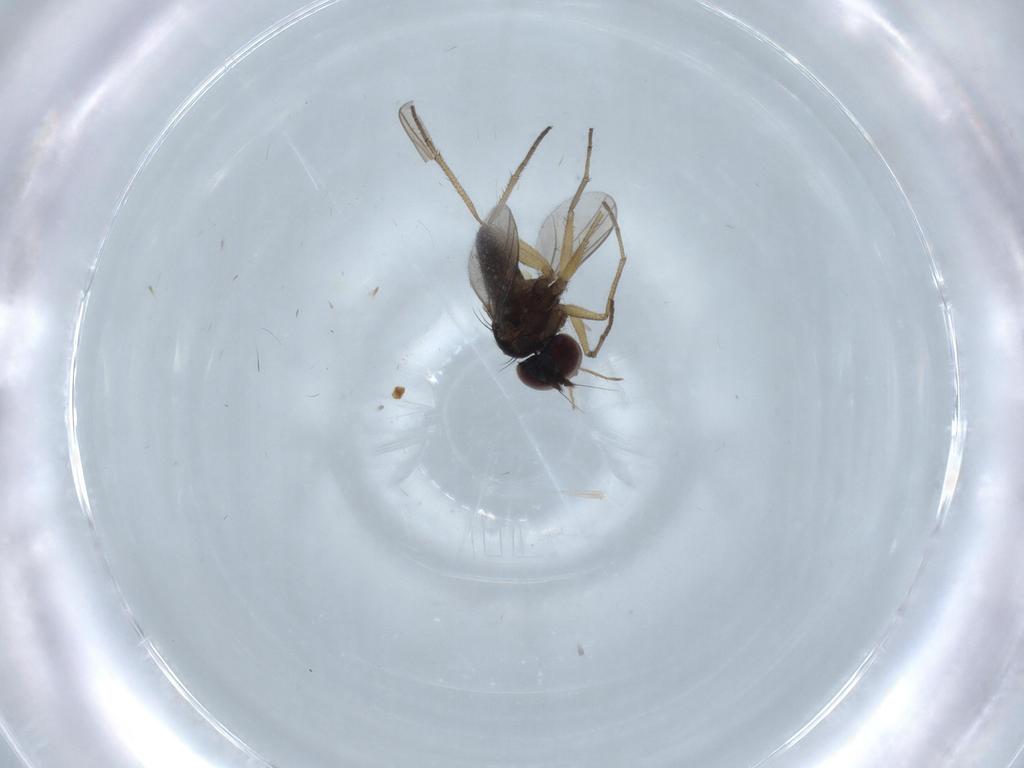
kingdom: Animalia
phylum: Arthropoda
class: Insecta
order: Diptera
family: Dolichopodidae
